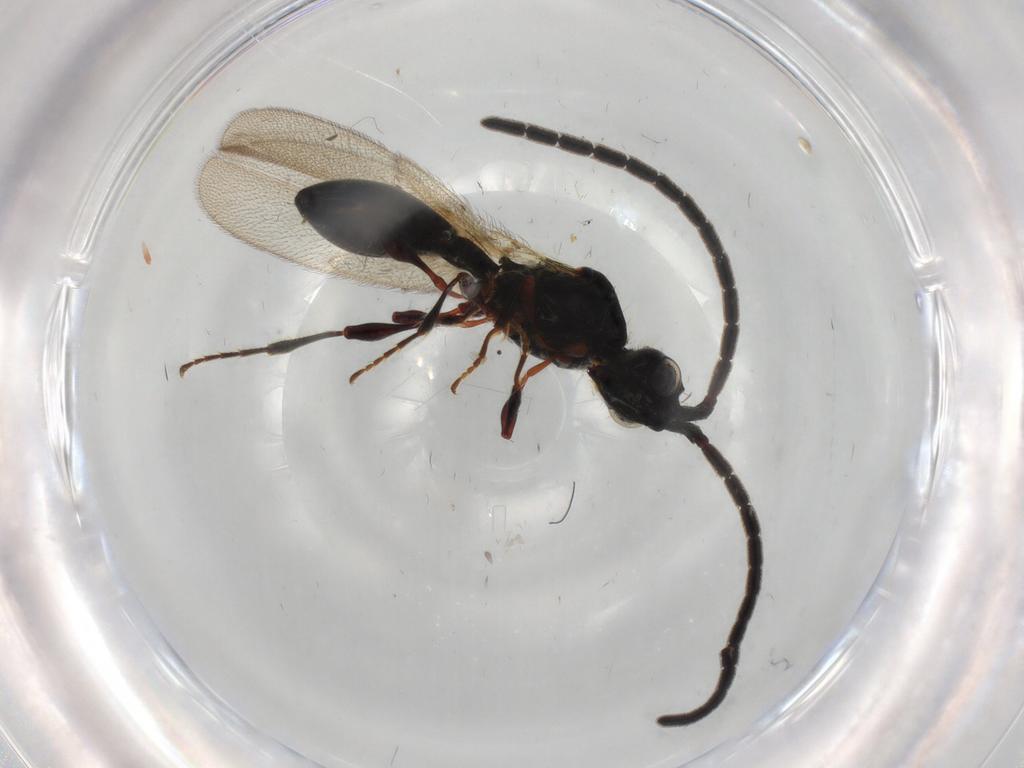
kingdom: Animalia
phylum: Arthropoda
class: Insecta
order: Hymenoptera
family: Diapriidae
